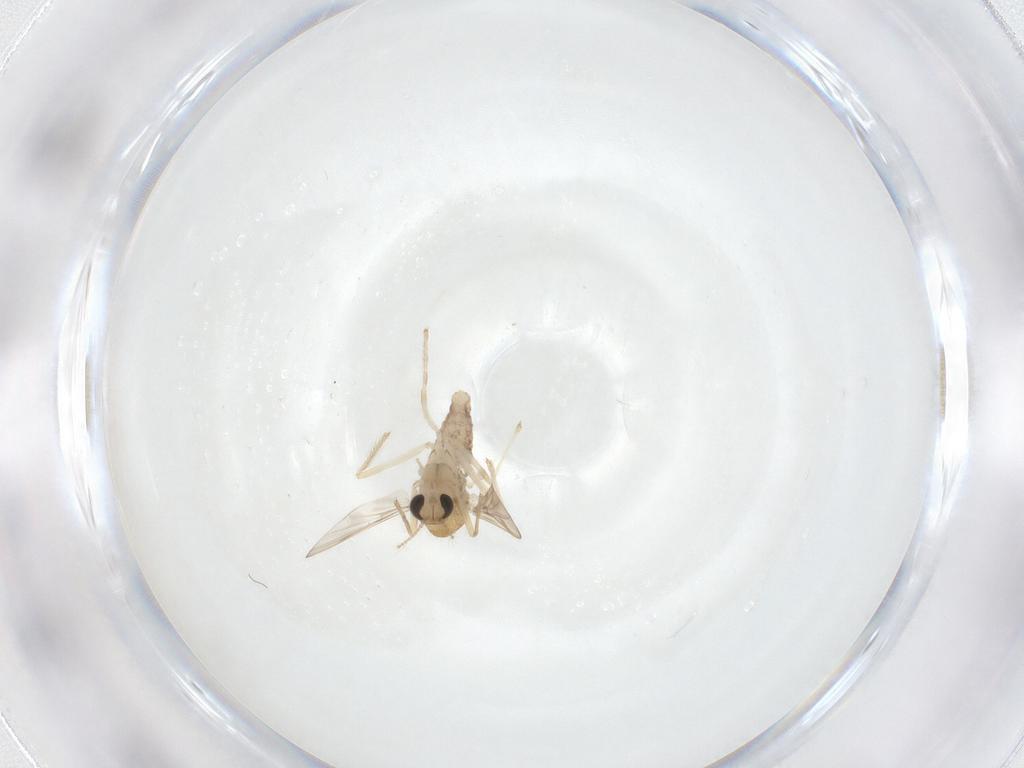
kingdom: Animalia
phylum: Arthropoda
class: Insecta
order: Diptera
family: Chironomidae
